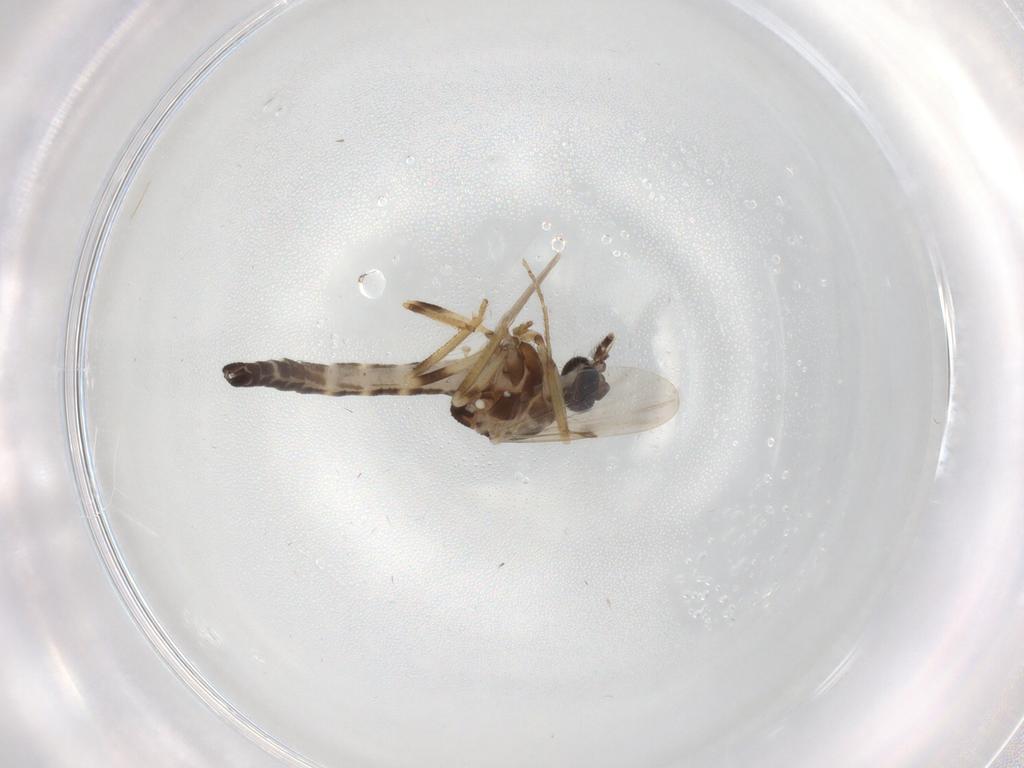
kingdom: Animalia
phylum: Arthropoda
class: Insecta
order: Diptera
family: Ceratopogonidae
